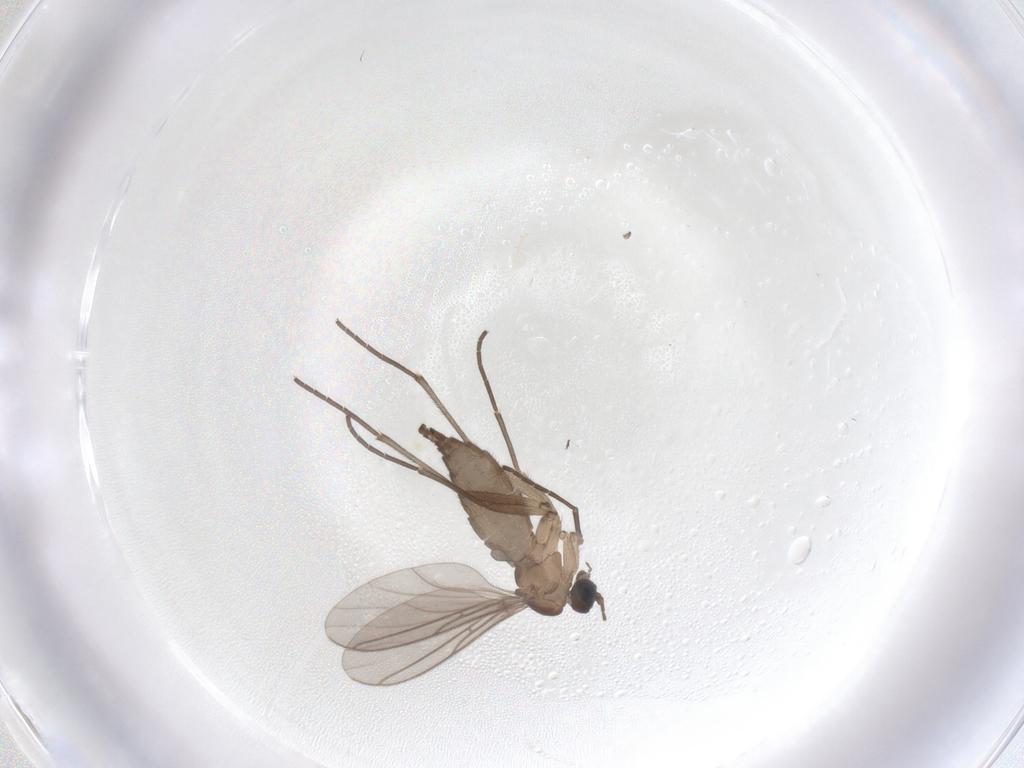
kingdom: Animalia
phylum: Arthropoda
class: Insecta
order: Diptera
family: Sciaridae
